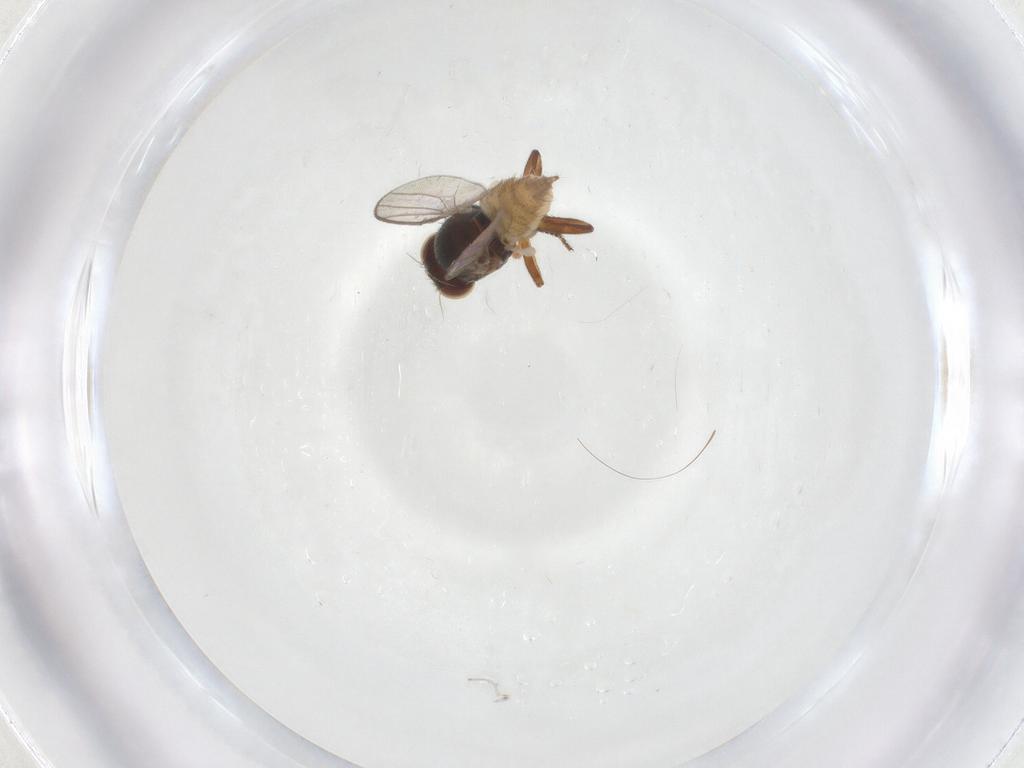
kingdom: Animalia
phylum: Arthropoda
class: Insecta
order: Diptera
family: Chloropidae
